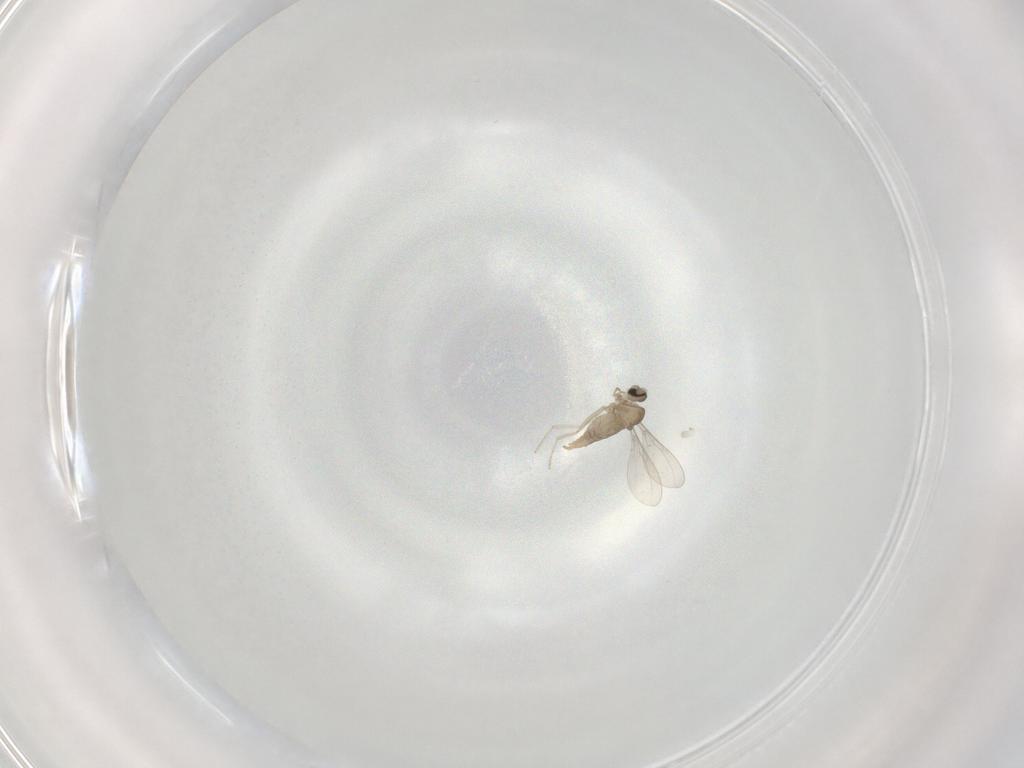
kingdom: Animalia
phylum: Arthropoda
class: Insecta
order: Diptera
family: Cecidomyiidae
